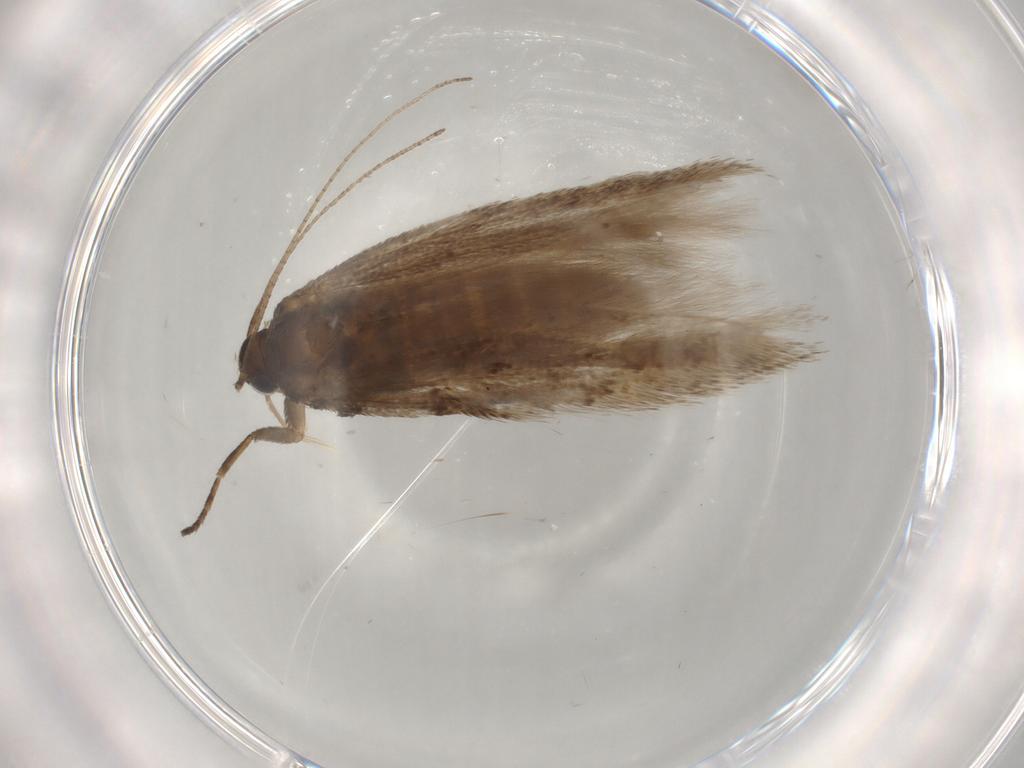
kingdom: Animalia
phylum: Arthropoda
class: Insecta
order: Lepidoptera
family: Gelechiidae
